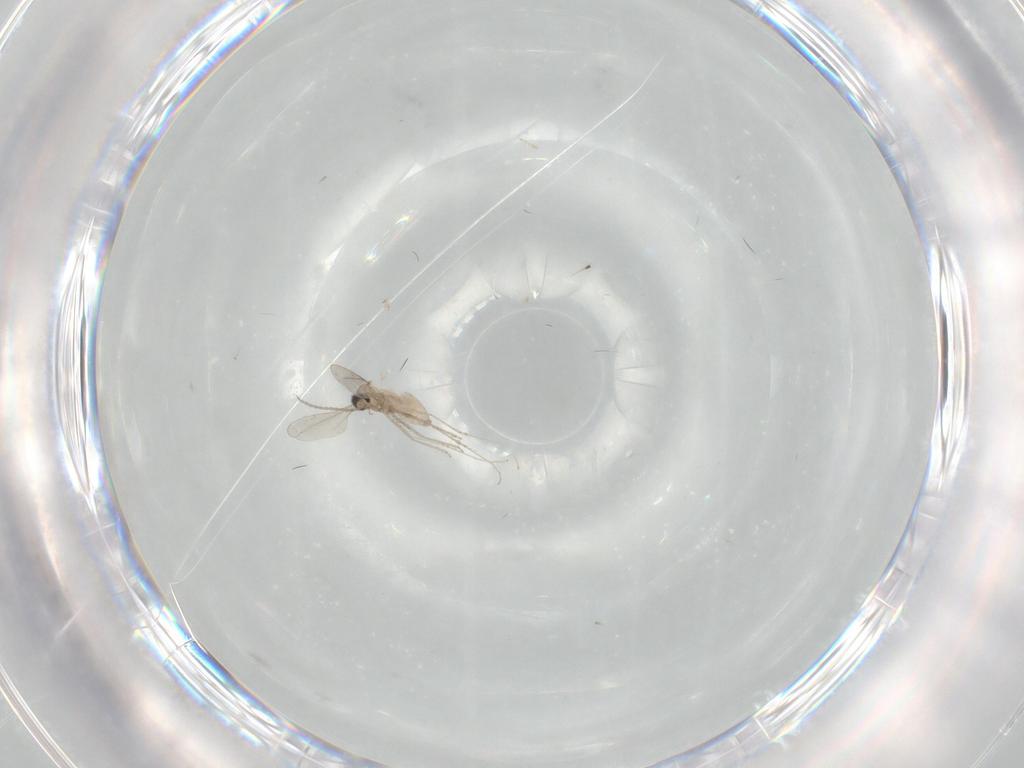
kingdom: Animalia
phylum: Arthropoda
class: Insecta
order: Diptera
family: Cecidomyiidae
